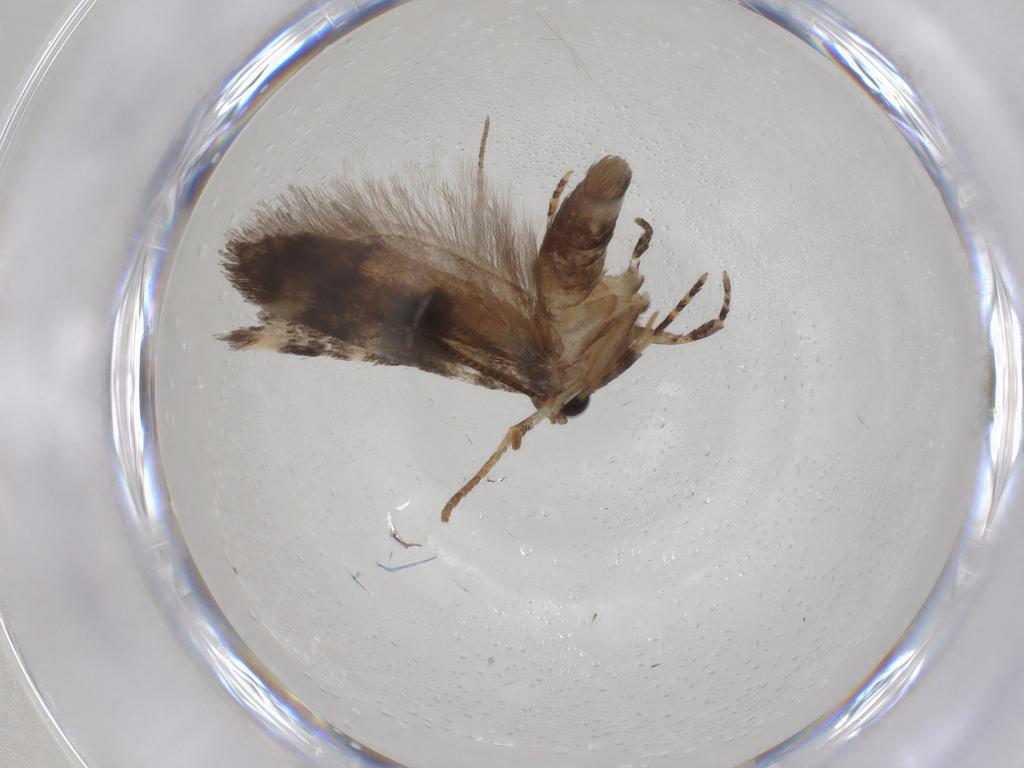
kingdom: Animalia
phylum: Arthropoda
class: Insecta
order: Lepidoptera
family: Gelechiidae
